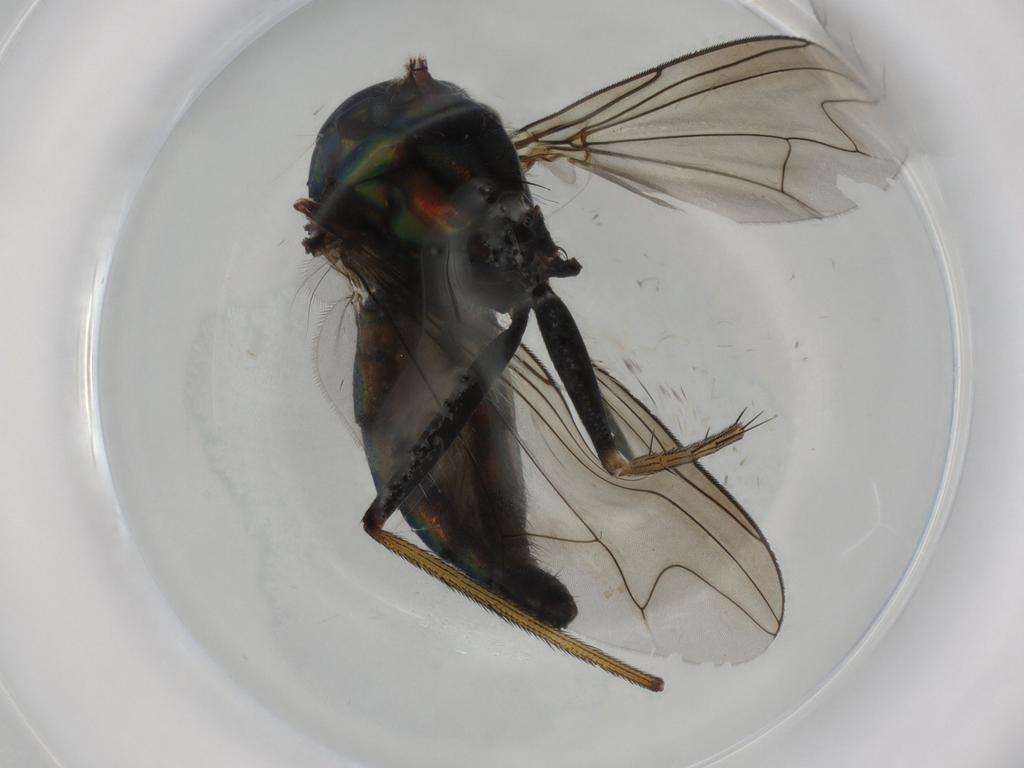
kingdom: Animalia
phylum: Arthropoda
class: Insecta
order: Diptera
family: Dolichopodidae
